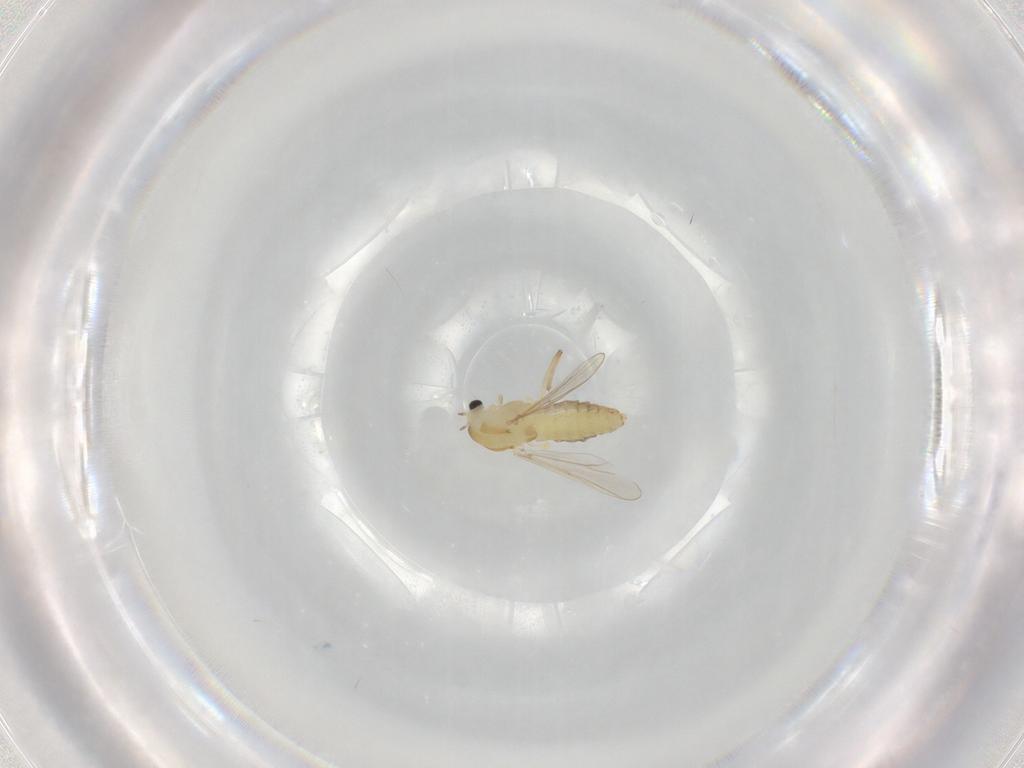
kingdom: Animalia
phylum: Arthropoda
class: Insecta
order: Diptera
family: Chironomidae
